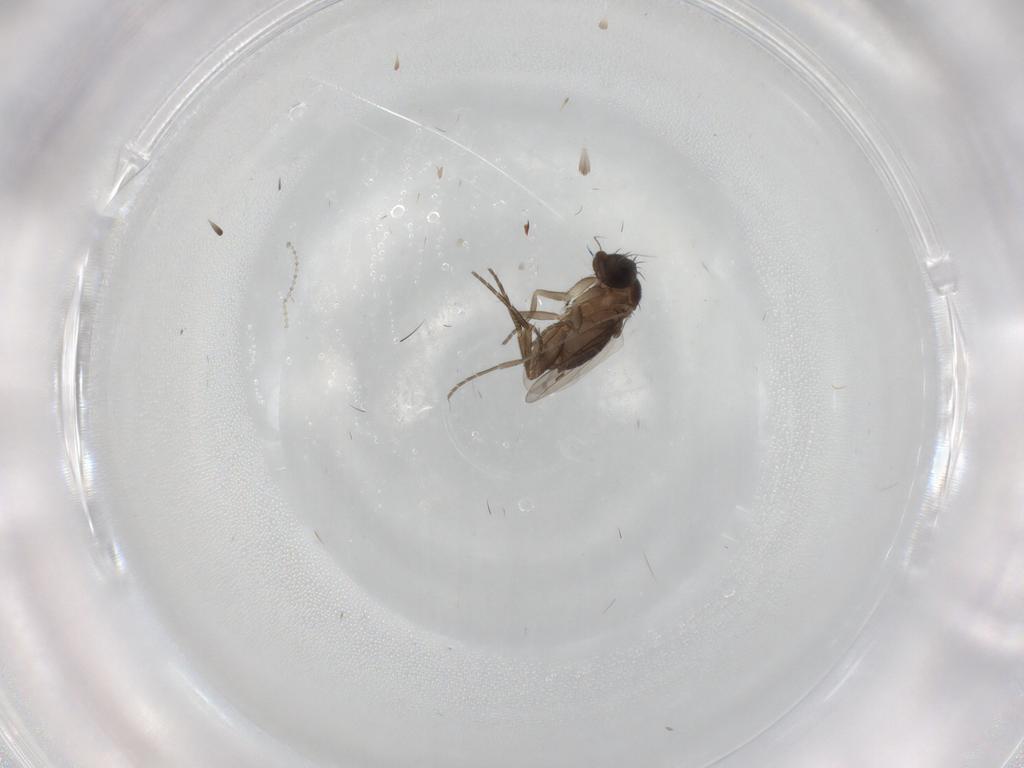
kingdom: Animalia
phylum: Arthropoda
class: Insecta
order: Diptera
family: Phoridae
